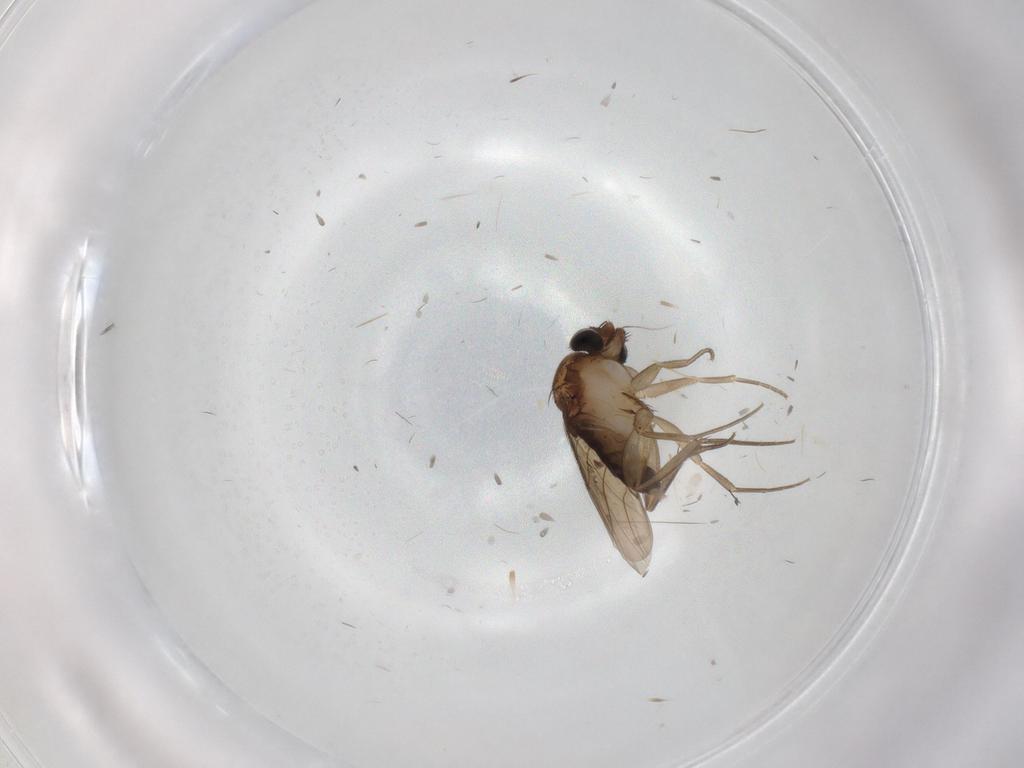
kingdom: Animalia
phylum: Arthropoda
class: Insecta
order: Diptera
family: Phoridae
